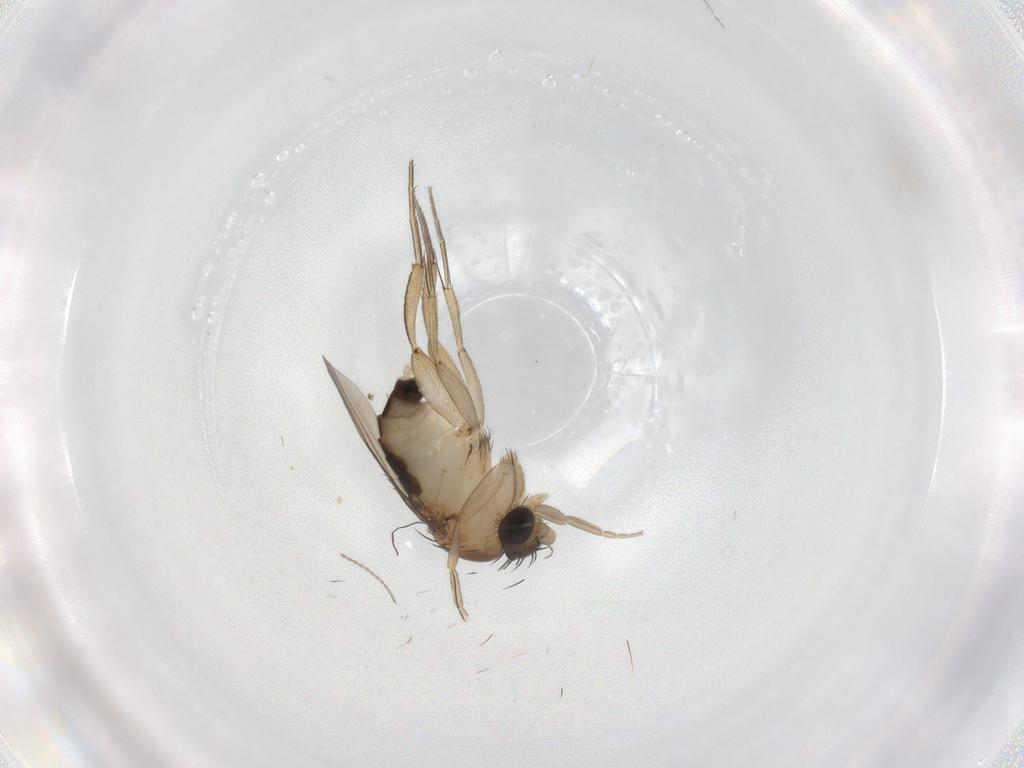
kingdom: Animalia
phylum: Arthropoda
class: Insecta
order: Diptera
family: Phoridae
